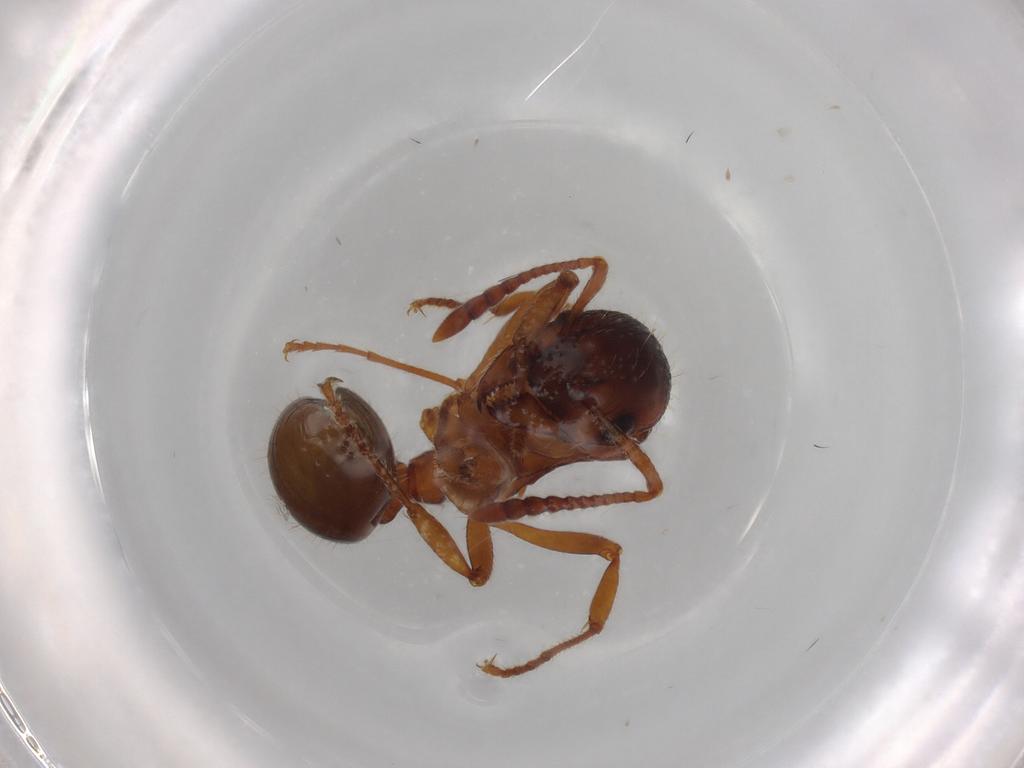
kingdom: Animalia
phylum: Arthropoda
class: Insecta
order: Hymenoptera
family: Formicidae
